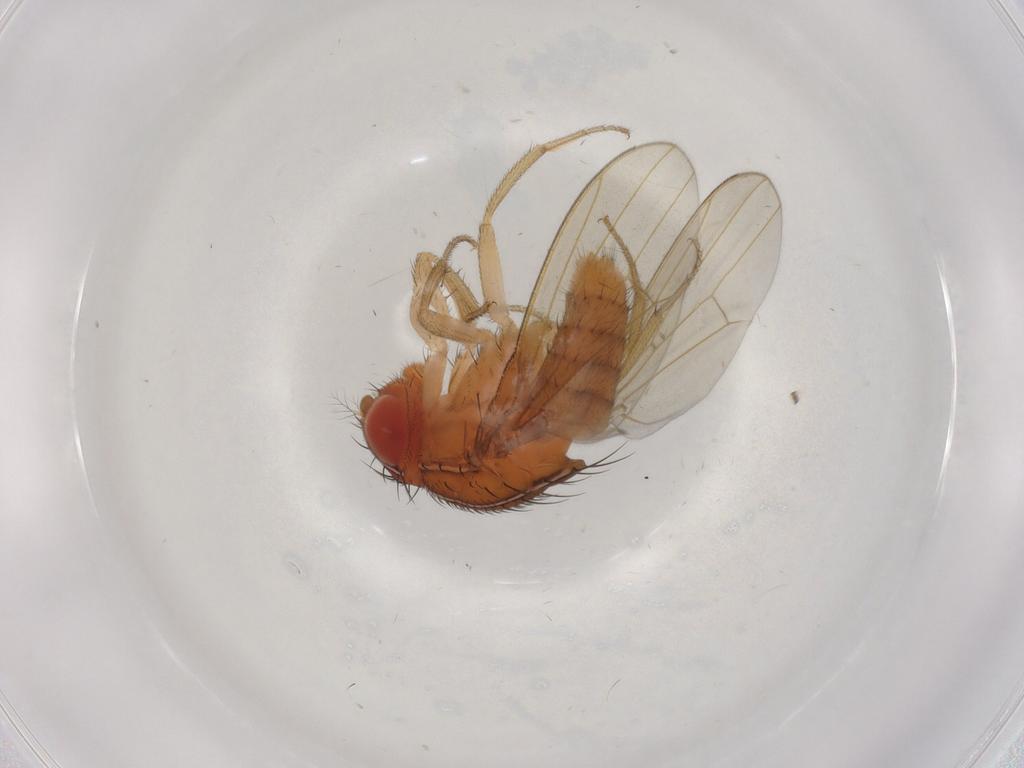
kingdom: Animalia
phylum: Arthropoda
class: Insecta
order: Diptera
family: Drosophilidae
